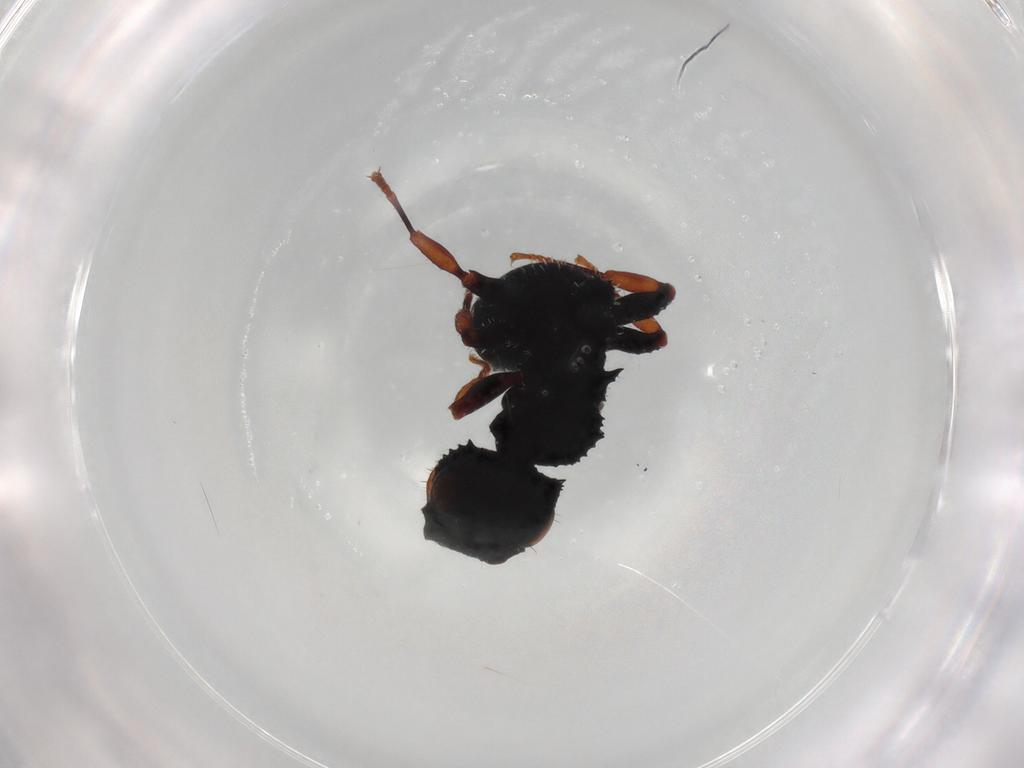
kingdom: Animalia
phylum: Arthropoda
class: Insecta
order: Hymenoptera
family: Formicidae
